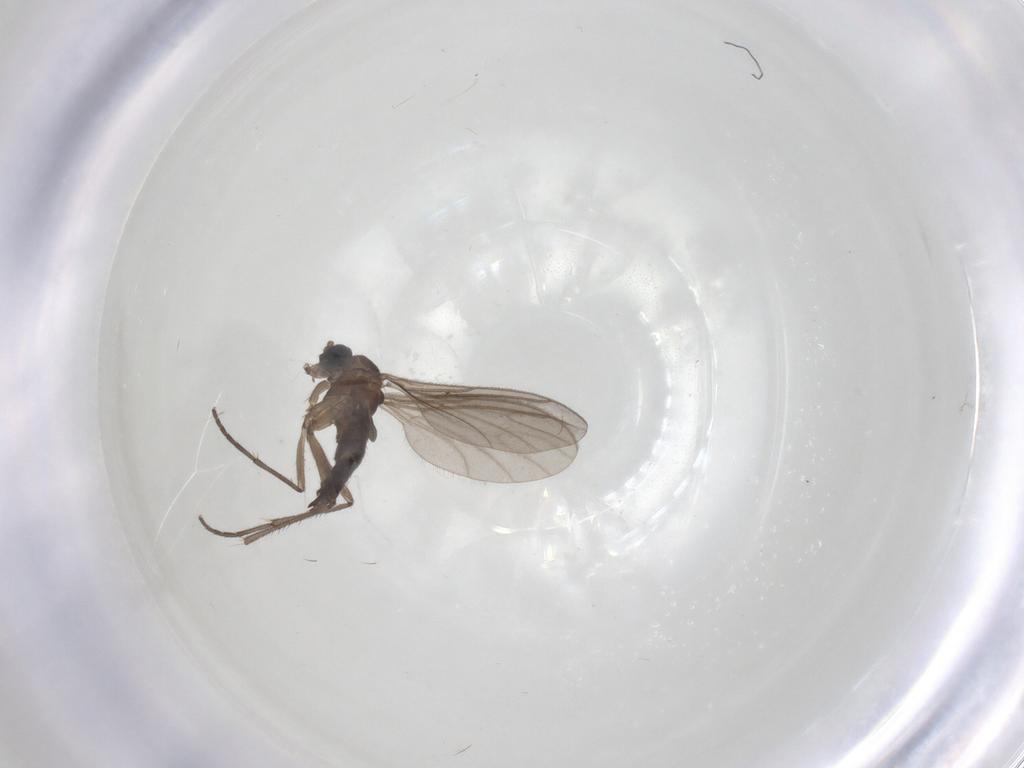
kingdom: Animalia
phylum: Arthropoda
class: Insecta
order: Diptera
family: Sciaridae
